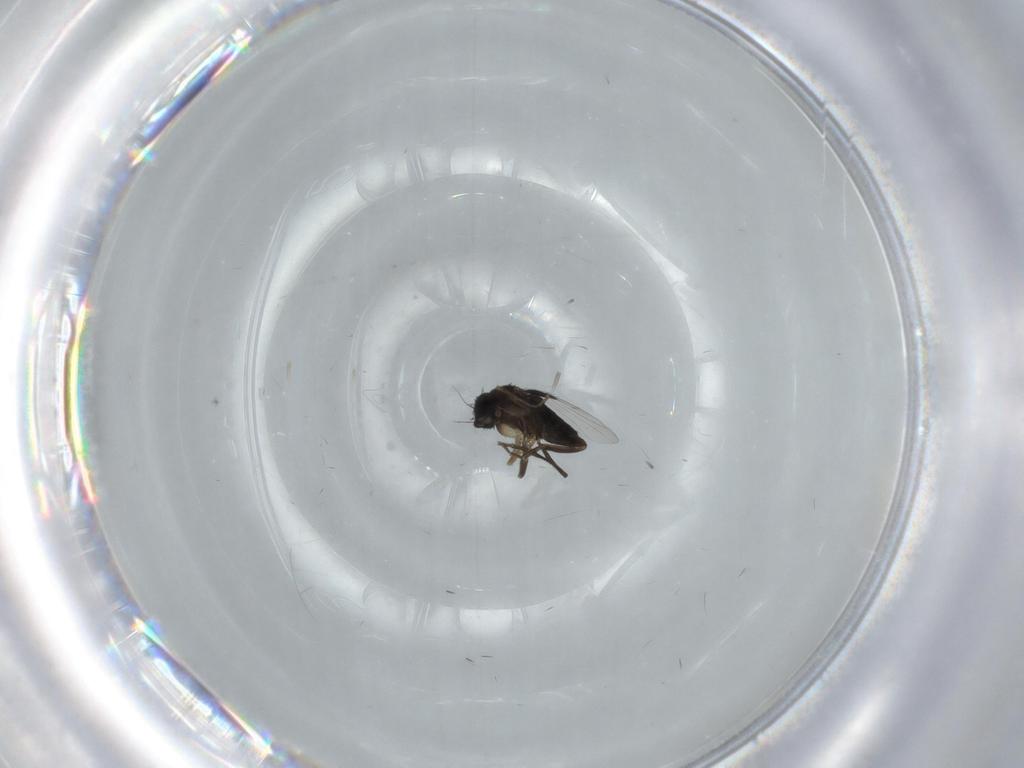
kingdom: Animalia
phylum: Arthropoda
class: Insecta
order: Diptera
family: Phoridae
